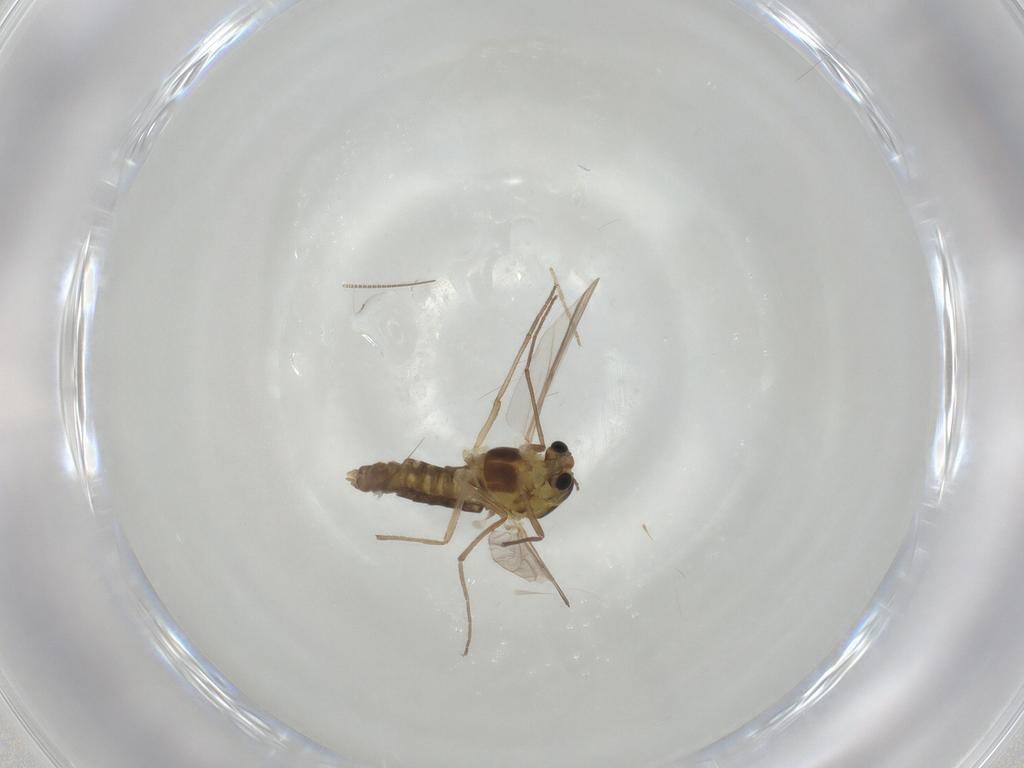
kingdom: Animalia
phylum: Arthropoda
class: Insecta
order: Diptera
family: Chironomidae
